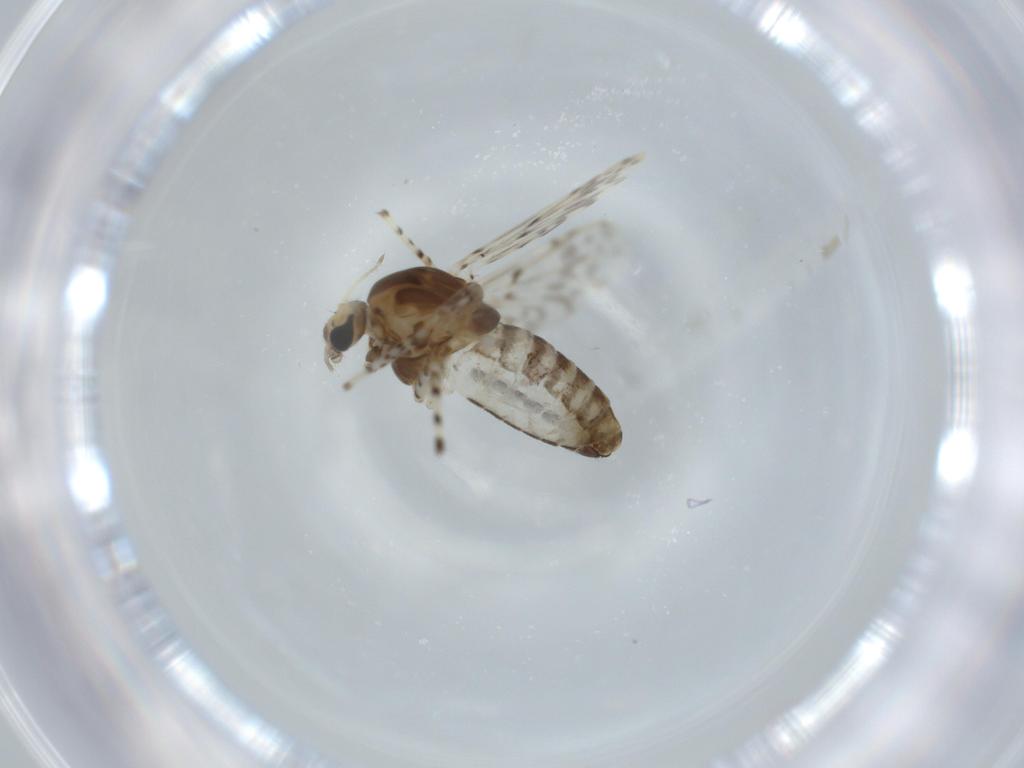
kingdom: Animalia
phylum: Arthropoda
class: Insecta
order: Diptera
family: Chironomidae
